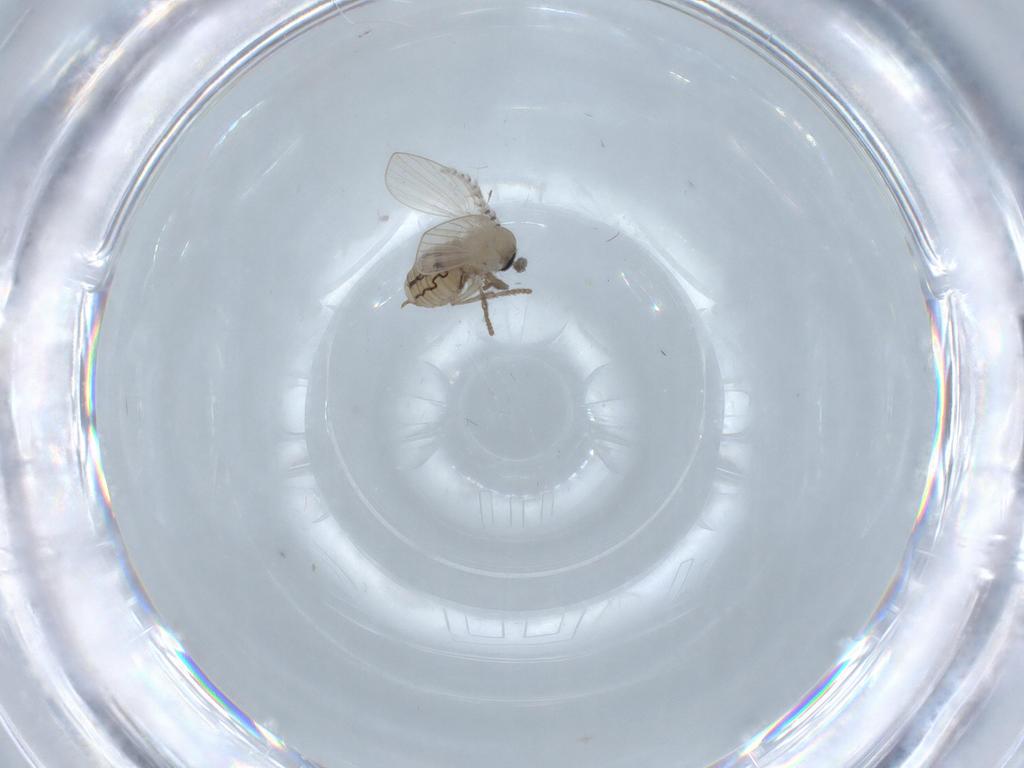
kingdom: Animalia
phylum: Arthropoda
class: Insecta
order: Diptera
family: Psychodidae
